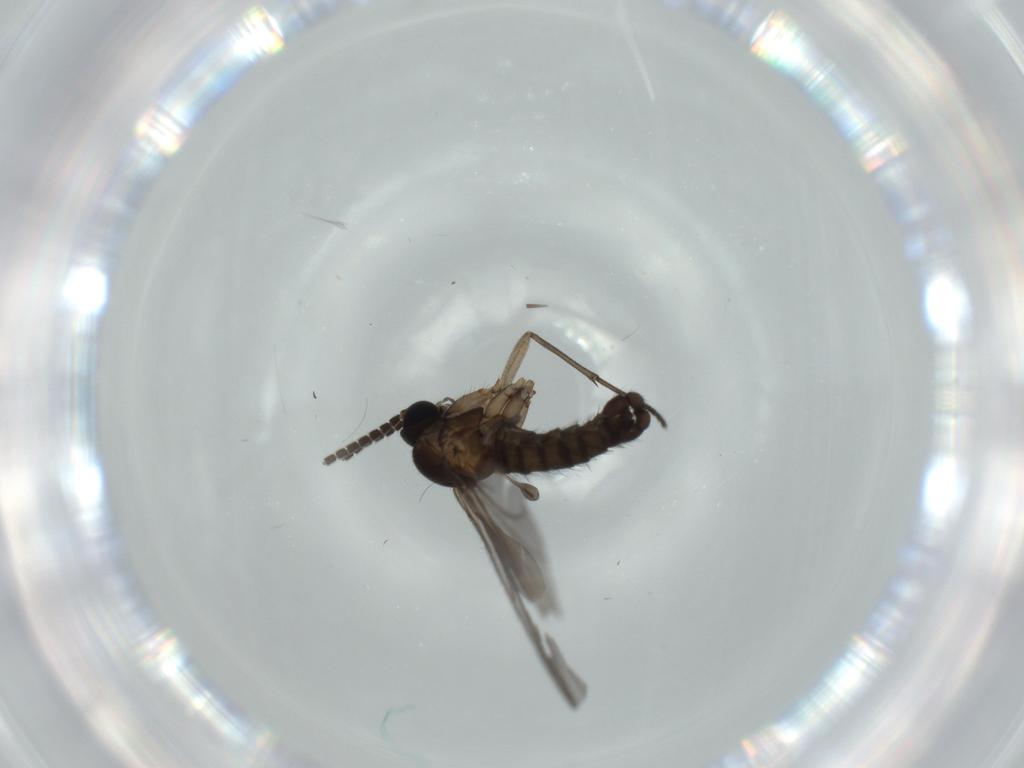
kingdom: Animalia
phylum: Arthropoda
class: Insecta
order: Diptera
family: Sciaridae
